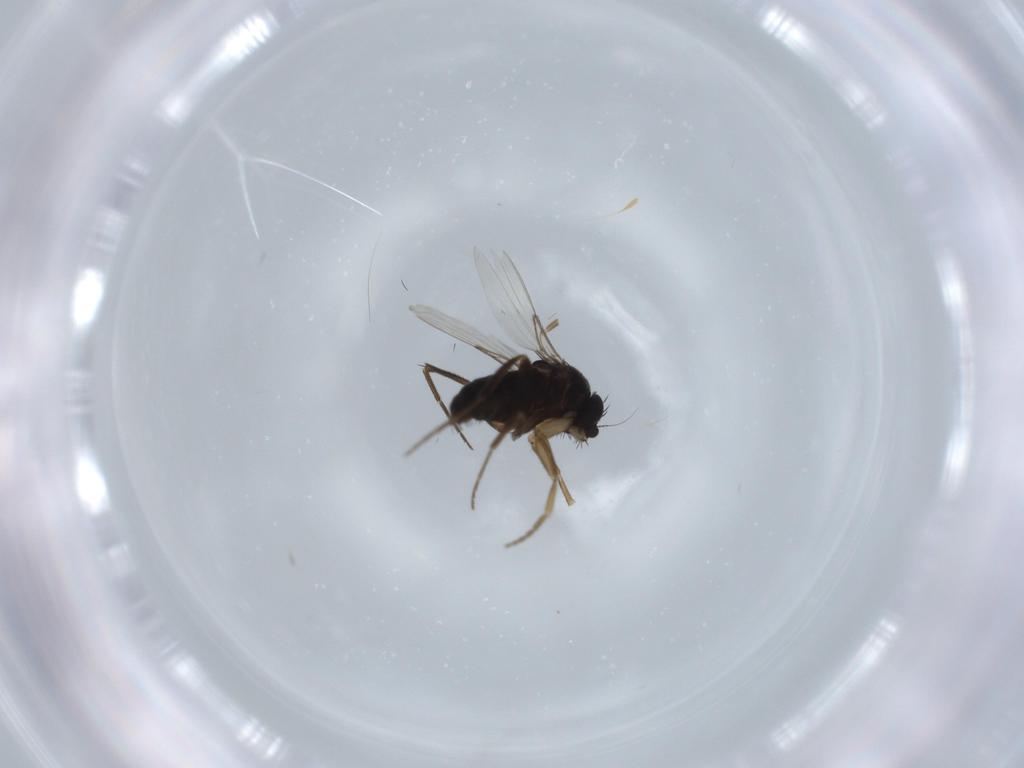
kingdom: Animalia
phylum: Arthropoda
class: Insecta
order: Diptera
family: Phoridae
